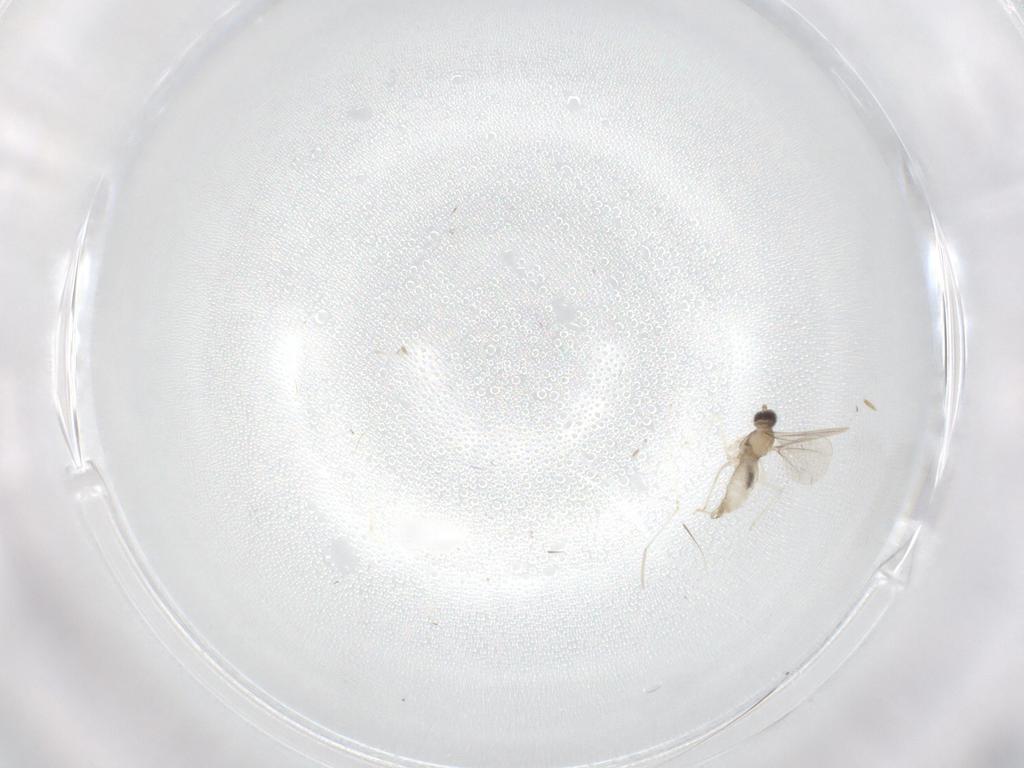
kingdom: Animalia
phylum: Arthropoda
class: Insecta
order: Diptera
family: Cecidomyiidae
